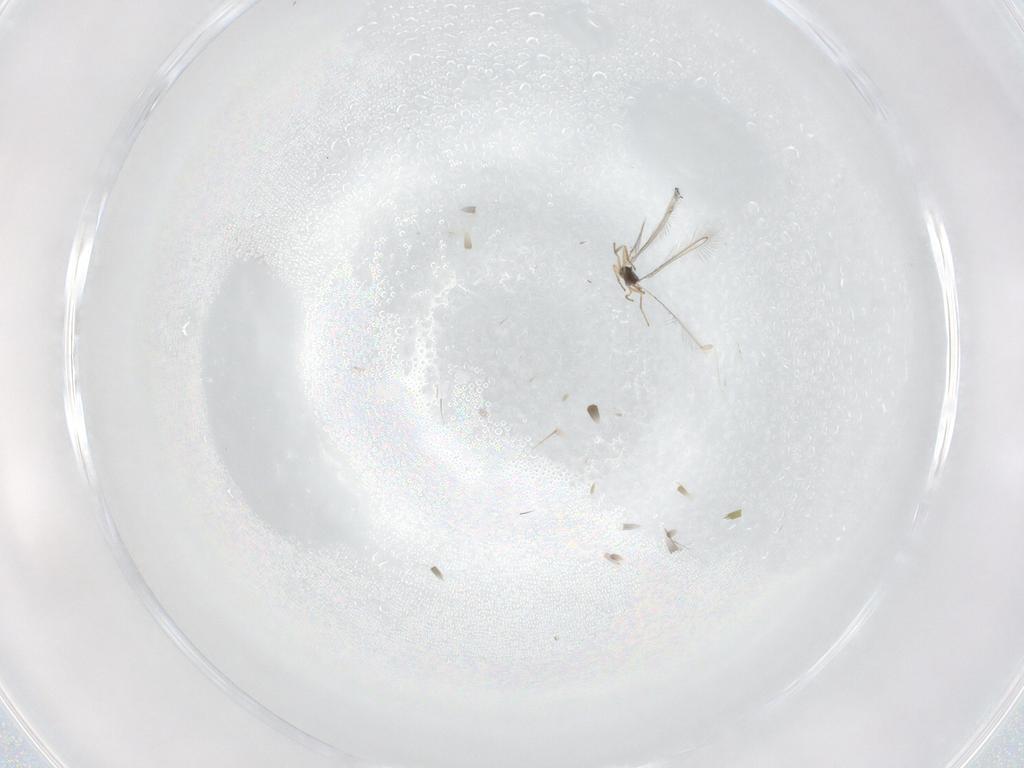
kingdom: Animalia
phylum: Arthropoda
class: Insecta
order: Hymenoptera
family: Mymaridae
